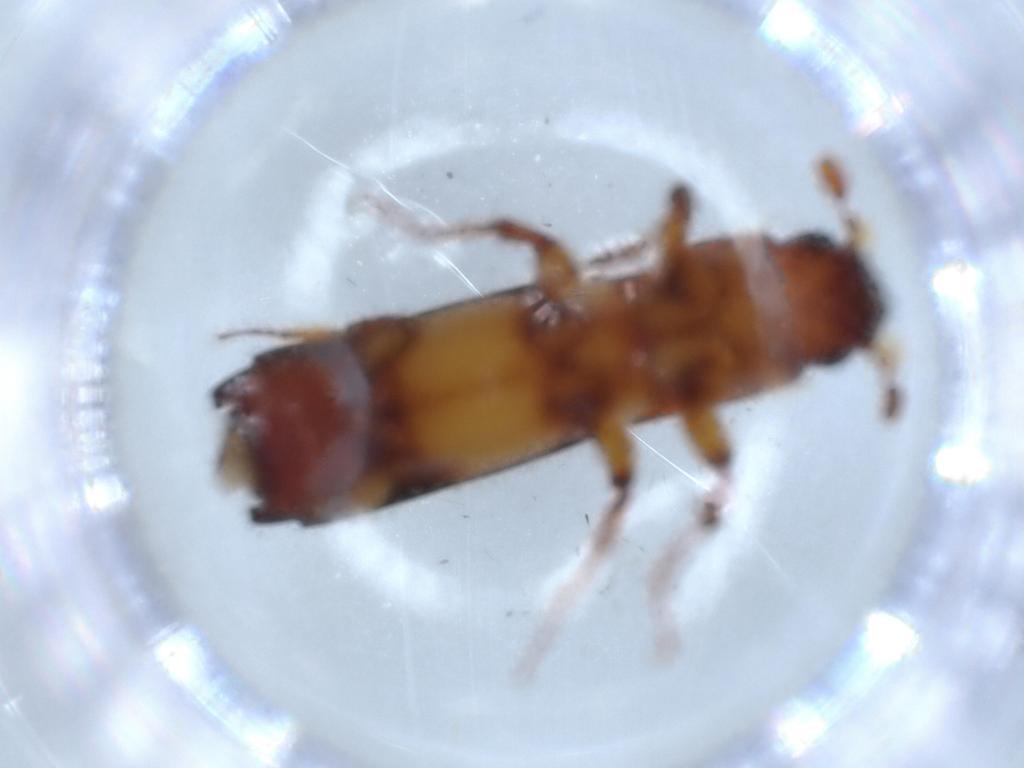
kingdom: Animalia
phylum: Arthropoda
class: Insecta
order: Coleoptera
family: Curculionidae
